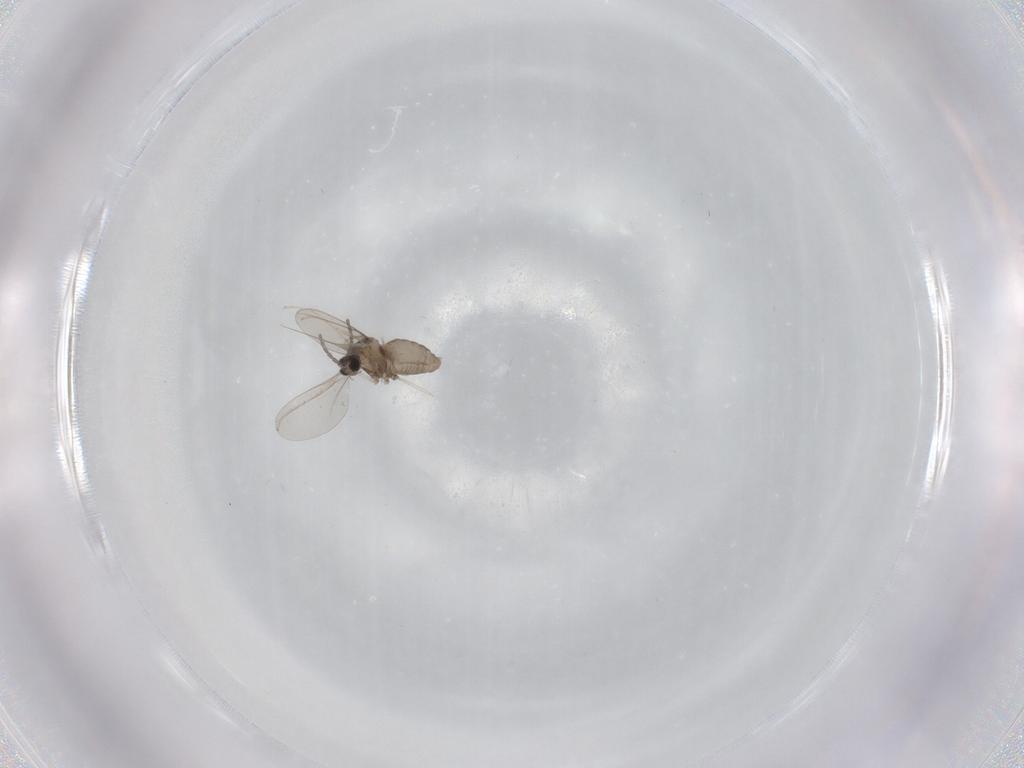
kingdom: Animalia
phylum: Arthropoda
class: Insecta
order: Diptera
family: Cecidomyiidae
